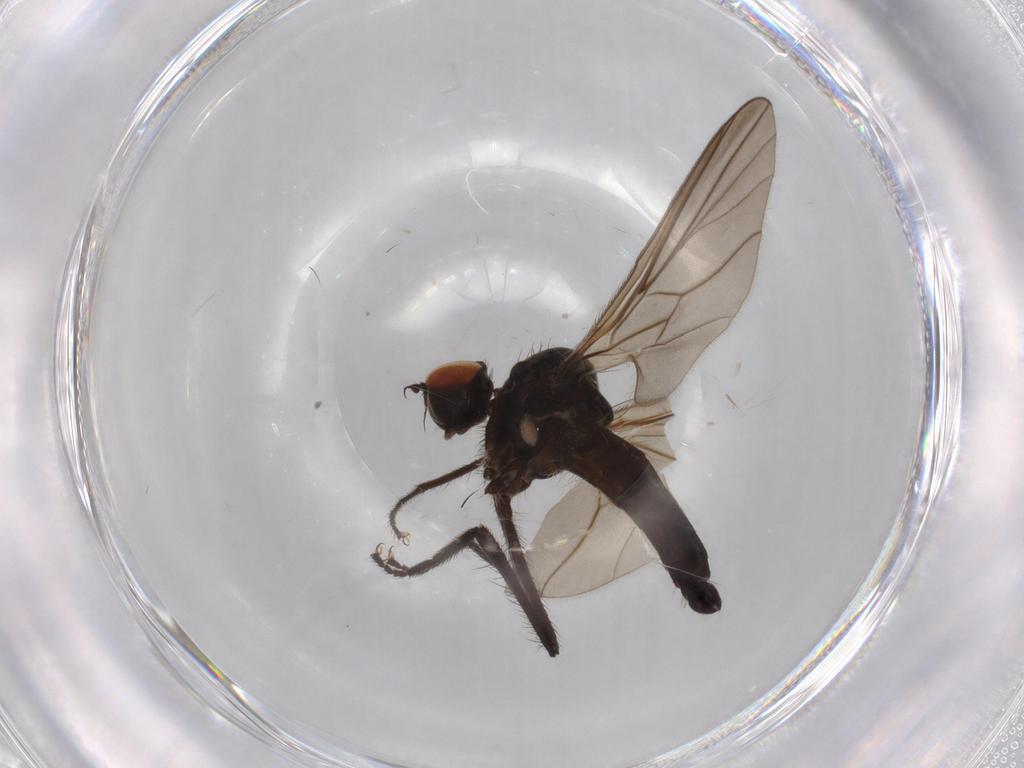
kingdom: Animalia
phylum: Arthropoda
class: Insecta
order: Diptera
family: Hybotidae
